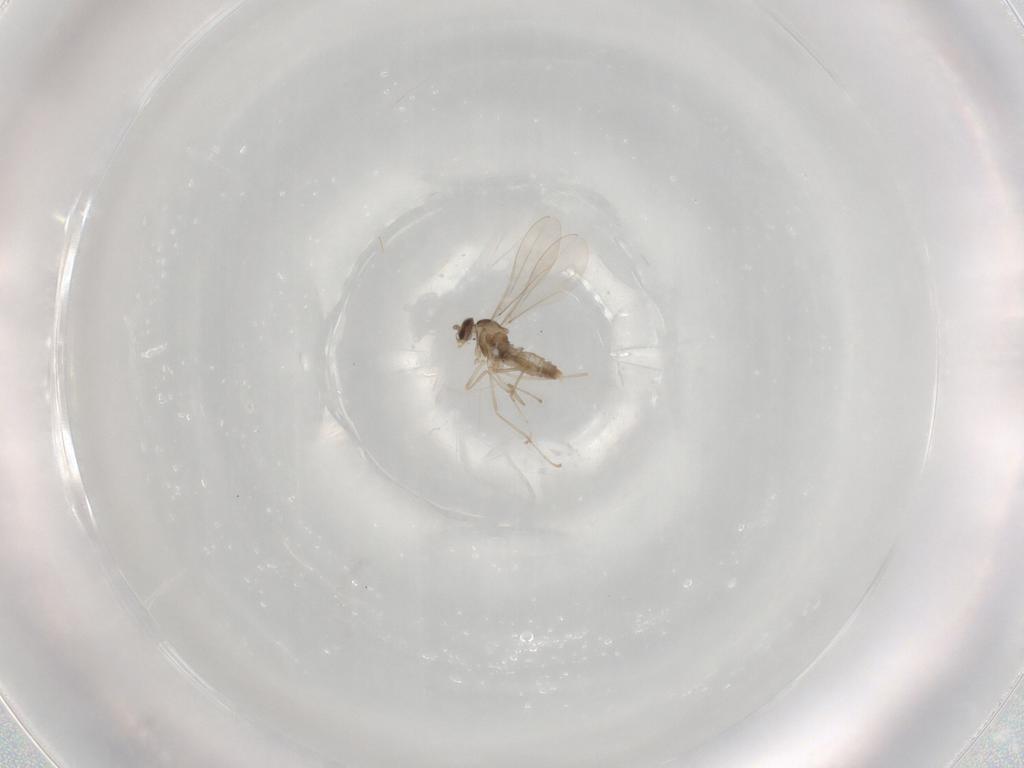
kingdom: Animalia
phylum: Arthropoda
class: Insecta
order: Diptera
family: Cecidomyiidae
